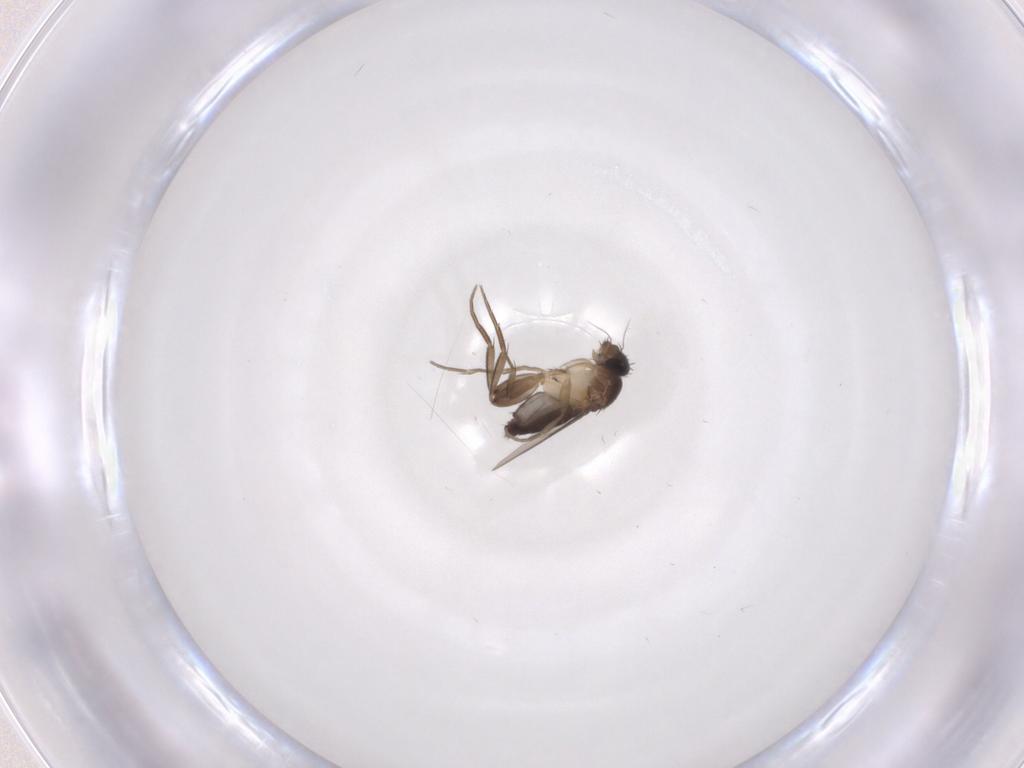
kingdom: Animalia
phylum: Arthropoda
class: Insecta
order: Diptera
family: Phoridae
